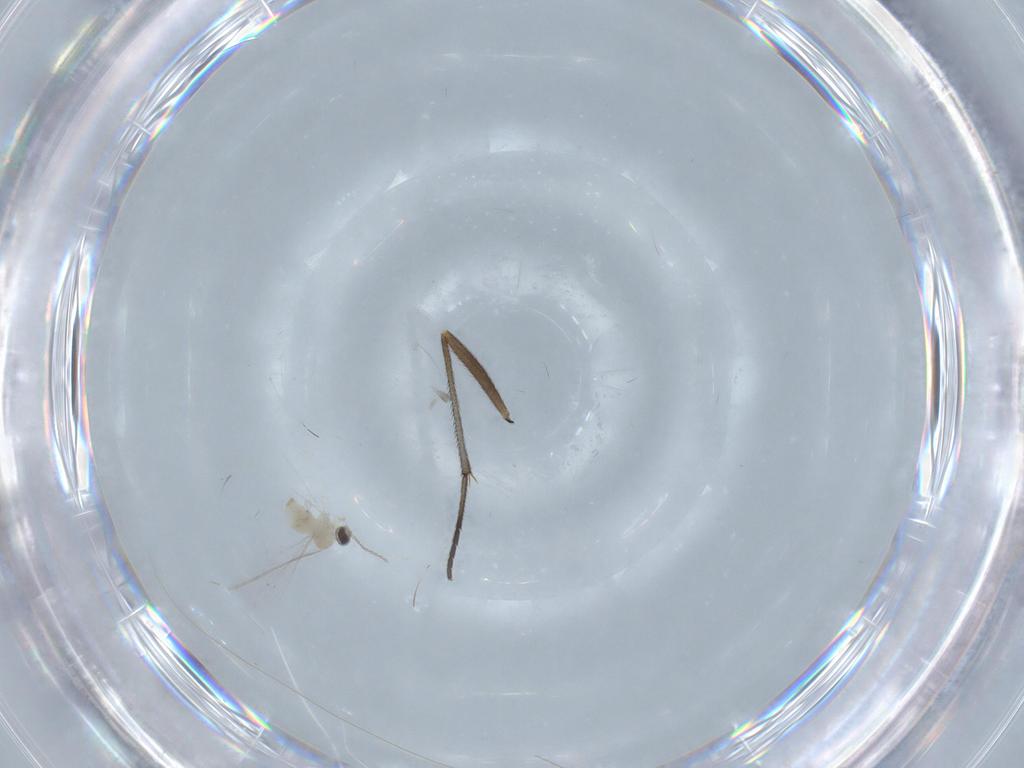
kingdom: Animalia
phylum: Arthropoda
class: Insecta
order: Diptera
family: Cecidomyiidae
